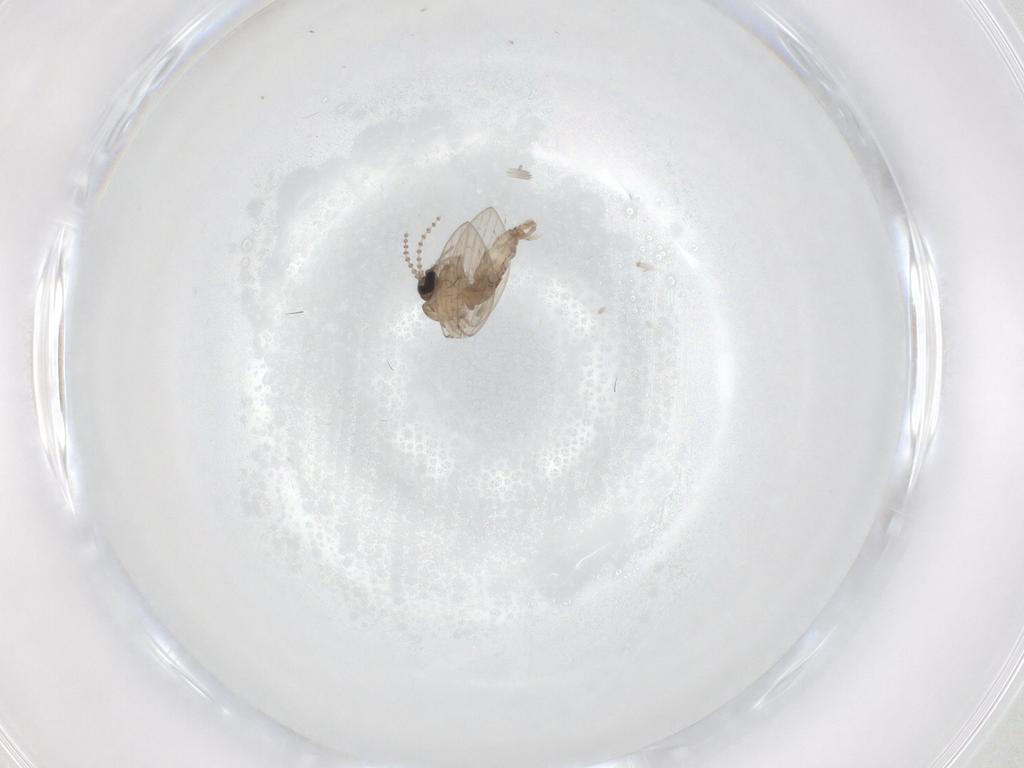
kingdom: Animalia
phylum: Arthropoda
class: Insecta
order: Diptera
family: Psychodidae
